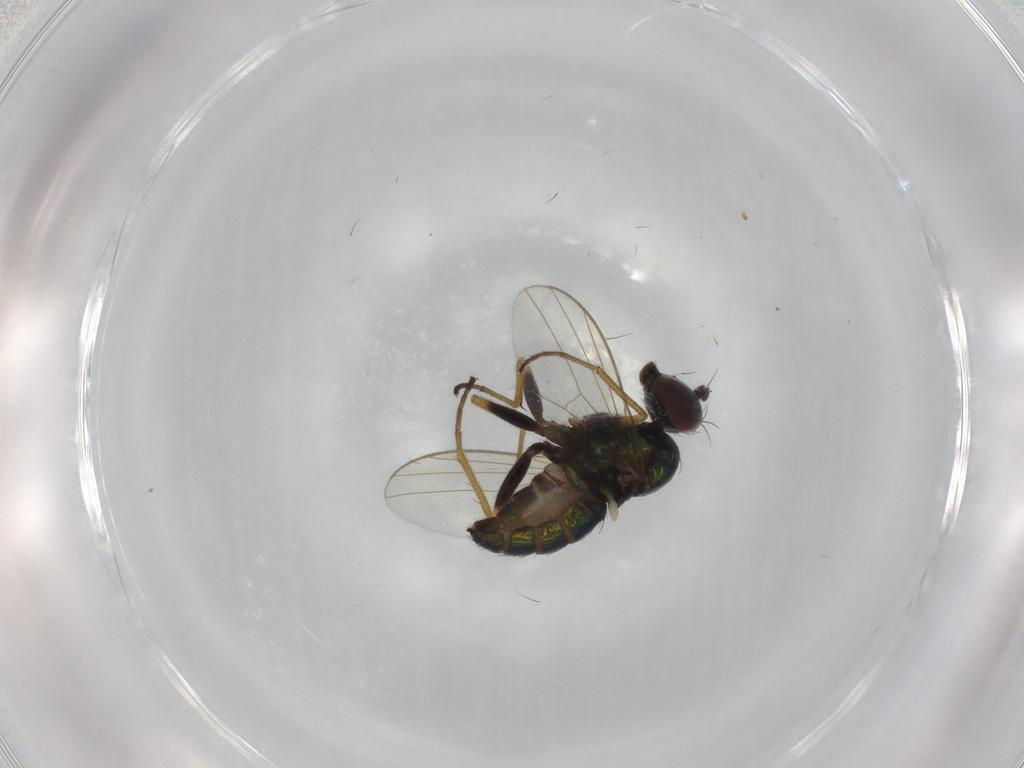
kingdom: Animalia
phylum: Arthropoda
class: Insecta
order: Diptera
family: Dolichopodidae
